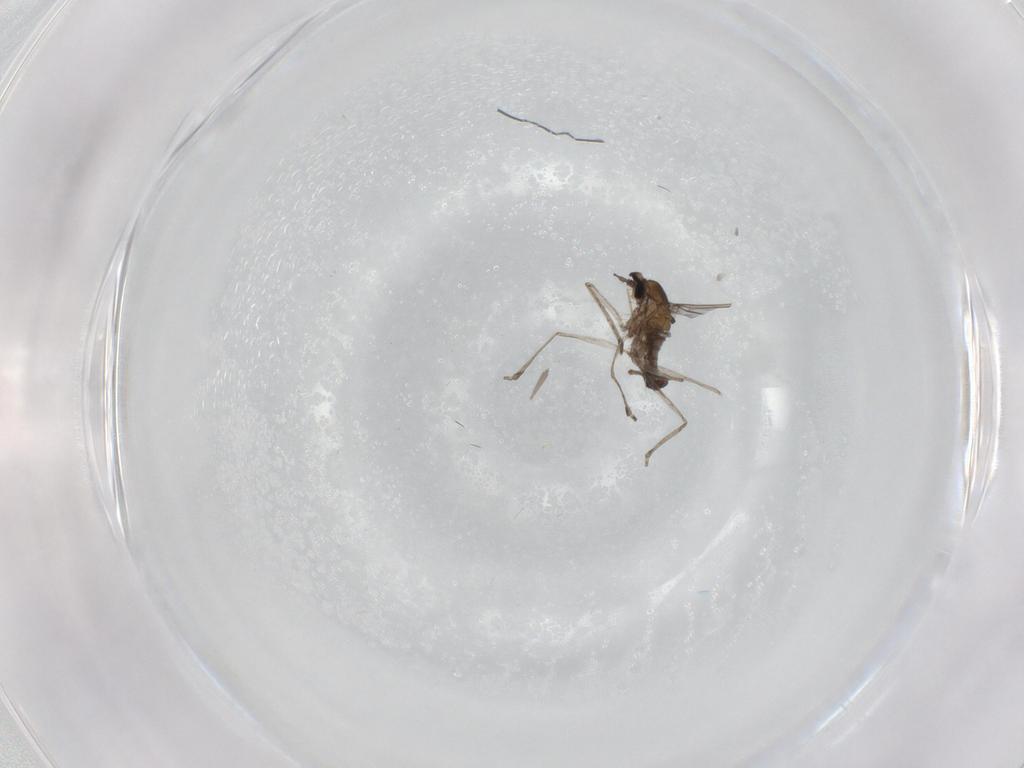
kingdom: Animalia
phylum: Arthropoda
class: Insecta
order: Diptera
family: Cecidomyiidae
